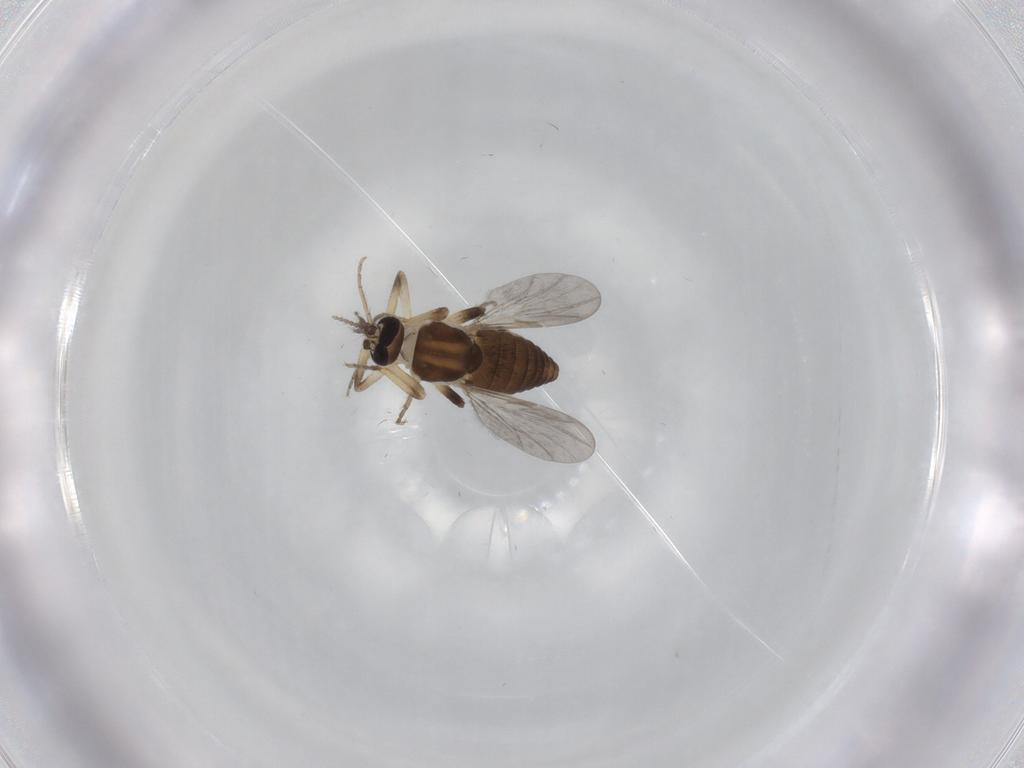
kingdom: Animalia
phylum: Arthropoda
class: Insecta
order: Diptera
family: Ceratopogonidae
